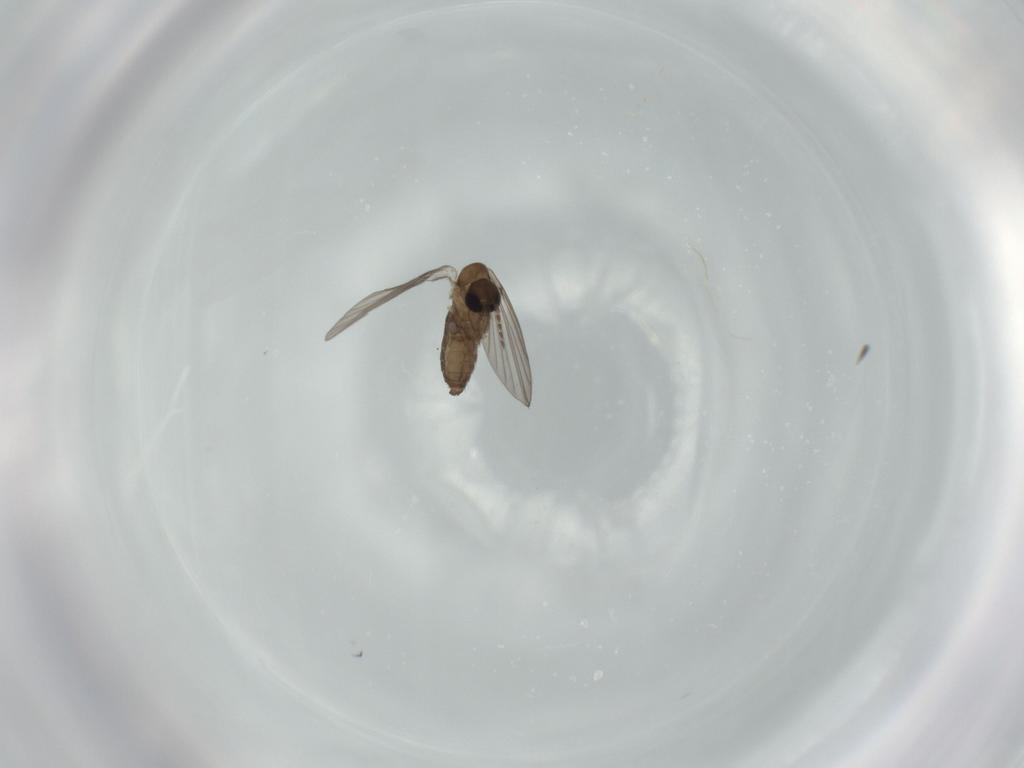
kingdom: Animalia
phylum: Arthropoda
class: Insecta
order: Diptera
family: Psychodidae
